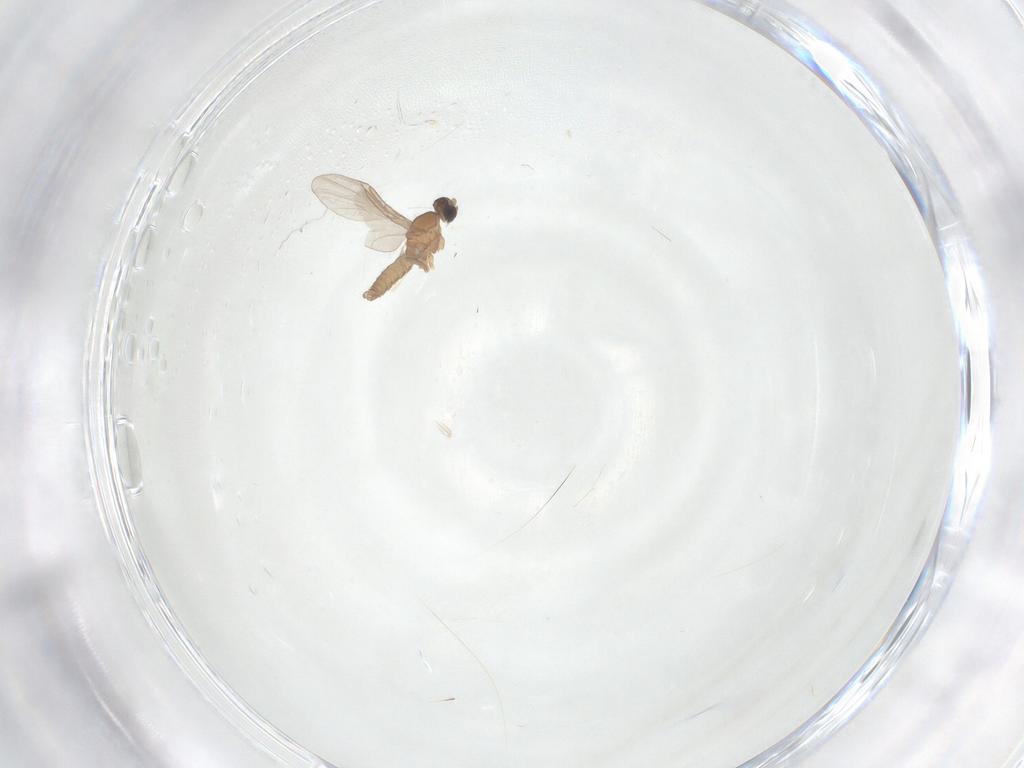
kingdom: Animalia
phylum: Arthropoda
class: Insecta
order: Diptera
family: Cecidomyiidae
